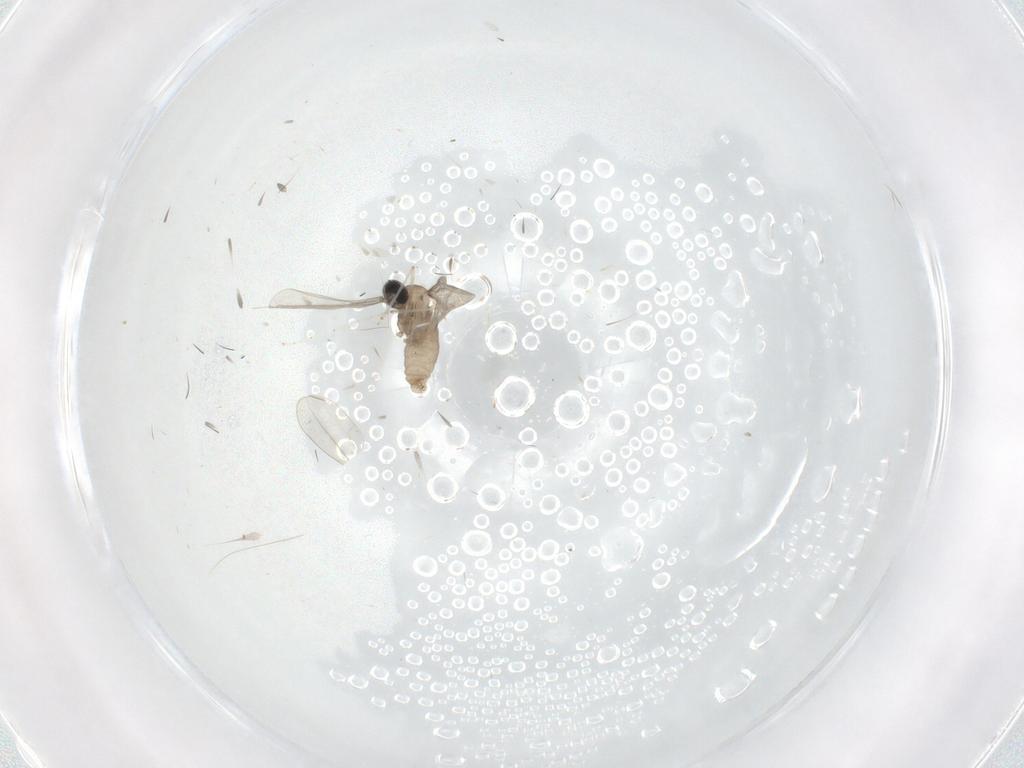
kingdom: Animalia
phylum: Arthropoda
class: Insecta
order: Diptera
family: Cecidomyiidae
